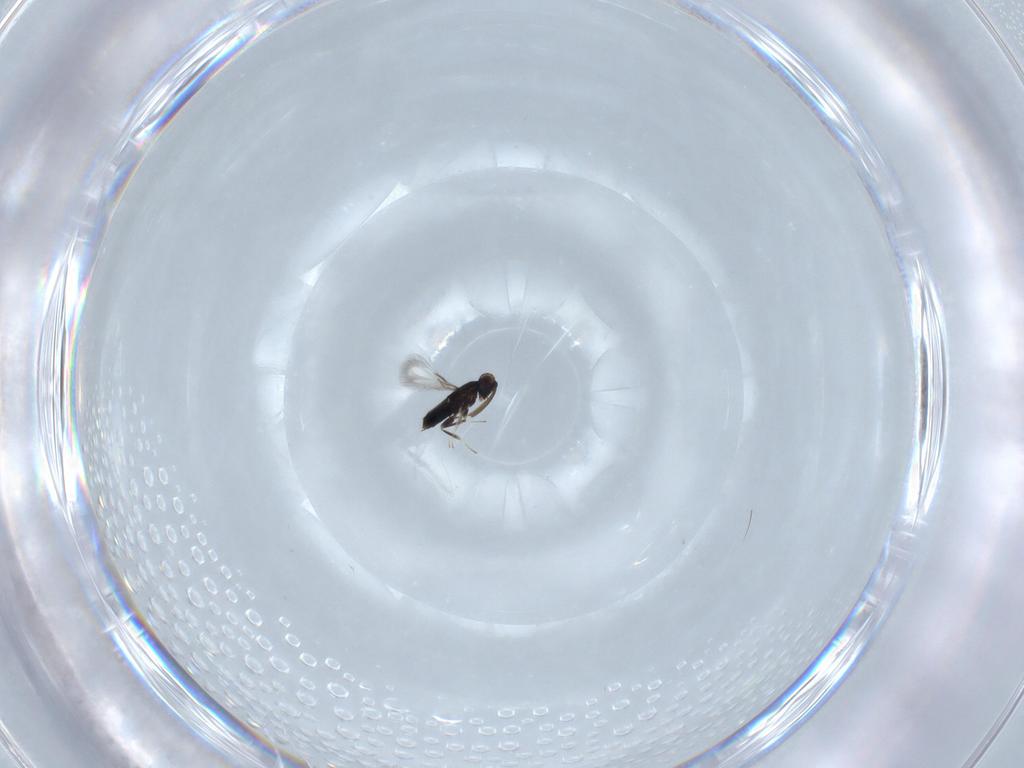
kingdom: Animalia
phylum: Arthropoda
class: Insecta
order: Hymenoptera
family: Signiphoridae
